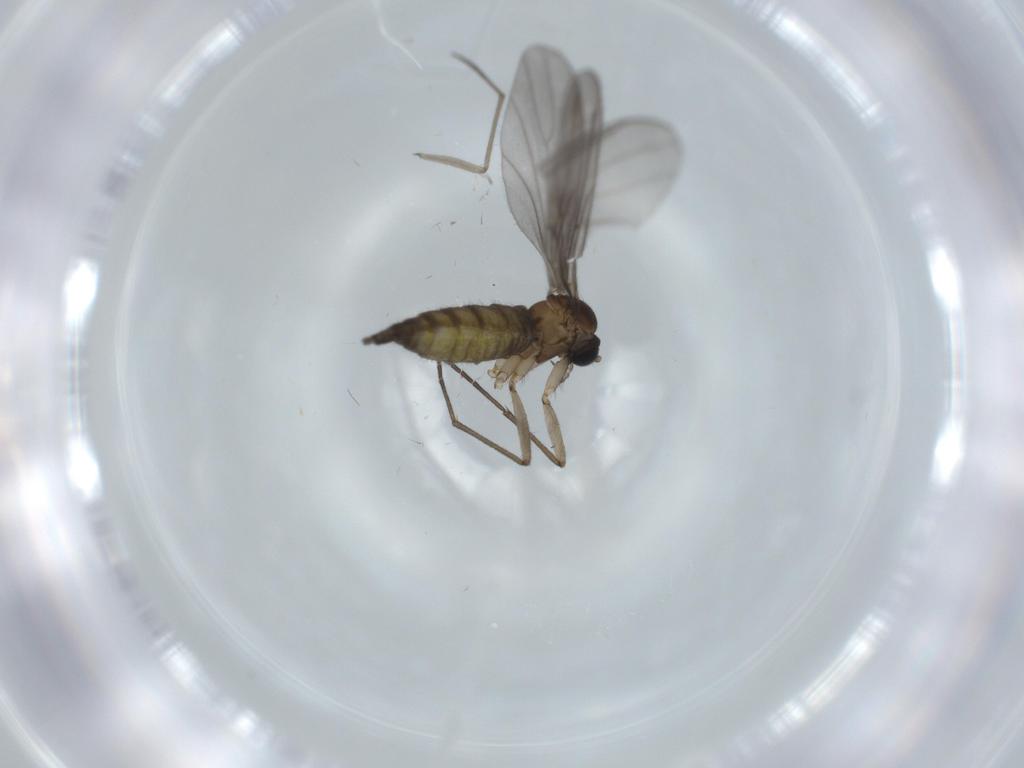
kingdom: Animalia
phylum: Arthropoda
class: Insecta
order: Diptera
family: Sciaridae
